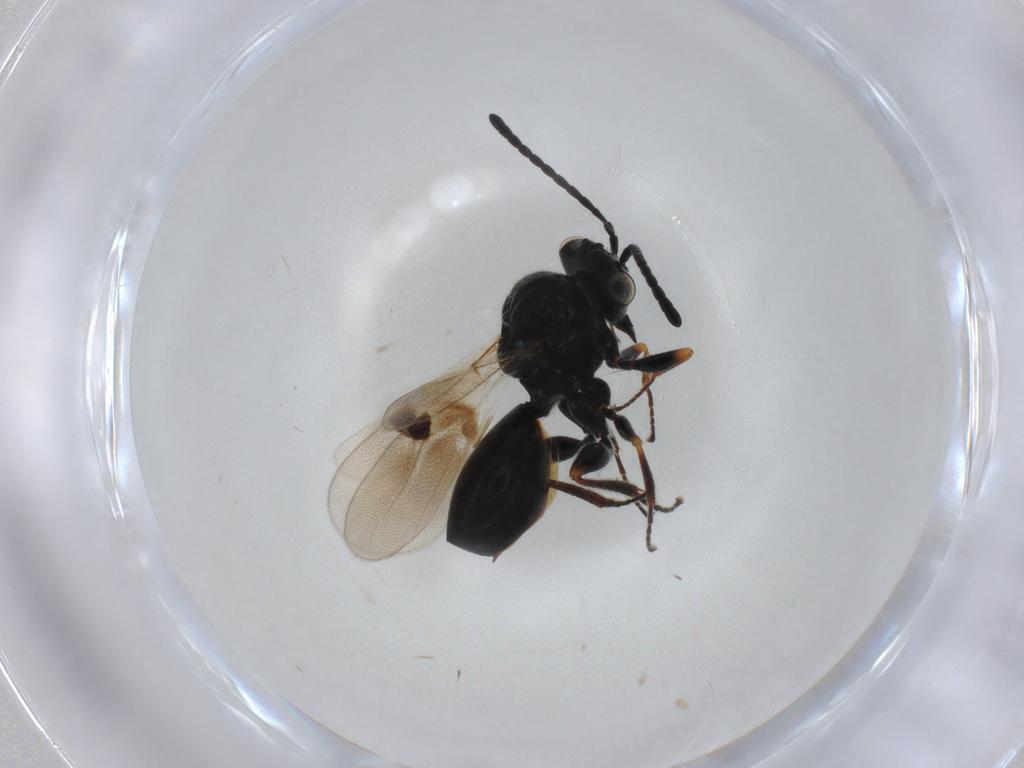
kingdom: Animalia
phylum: Arthropoda
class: Insecta
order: Hymenoptera
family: Figitidae
